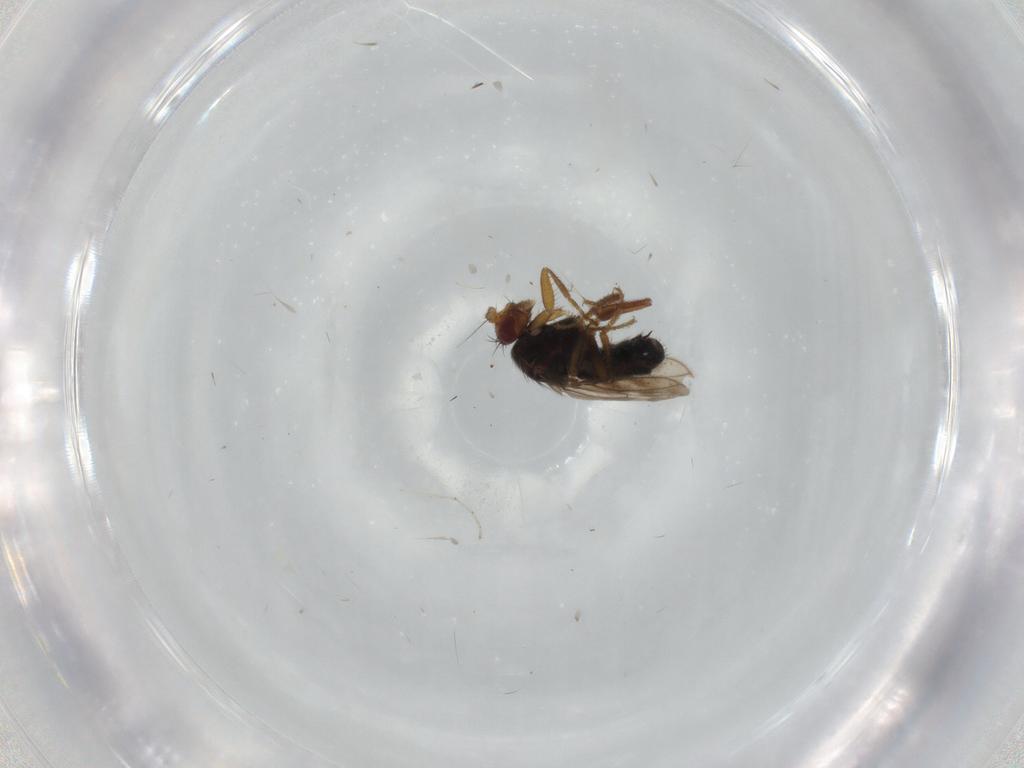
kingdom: Animalia
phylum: Arthropoda
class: Insecta
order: Diptera
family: Sphaeroceridae
